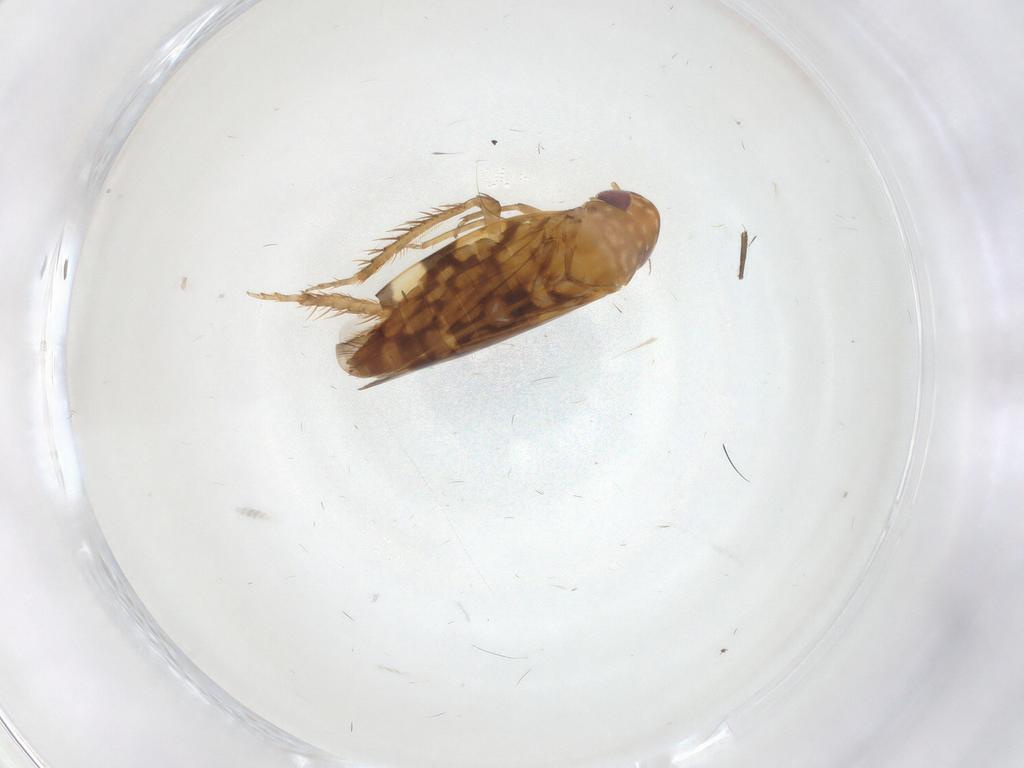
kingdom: Animalia
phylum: Arthropoda
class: Insecta
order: Hemiptera
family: Cicadellidae
